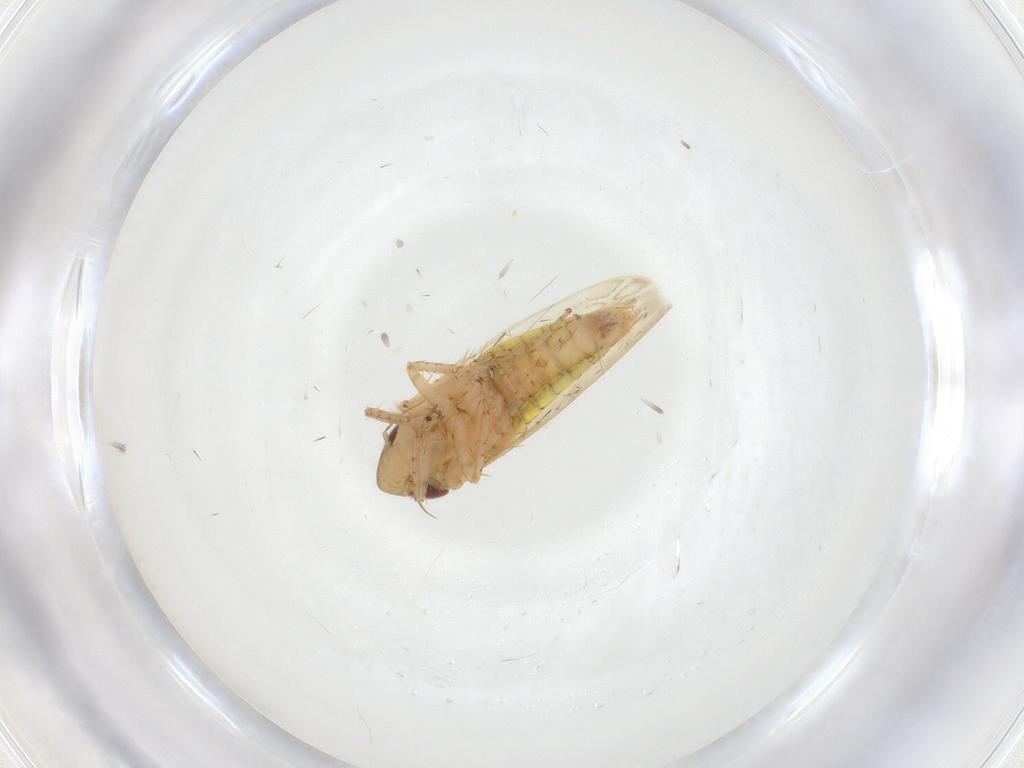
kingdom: Animalia
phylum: Arthropoda
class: Insecta
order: Hemiptera
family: Cicadellidae
